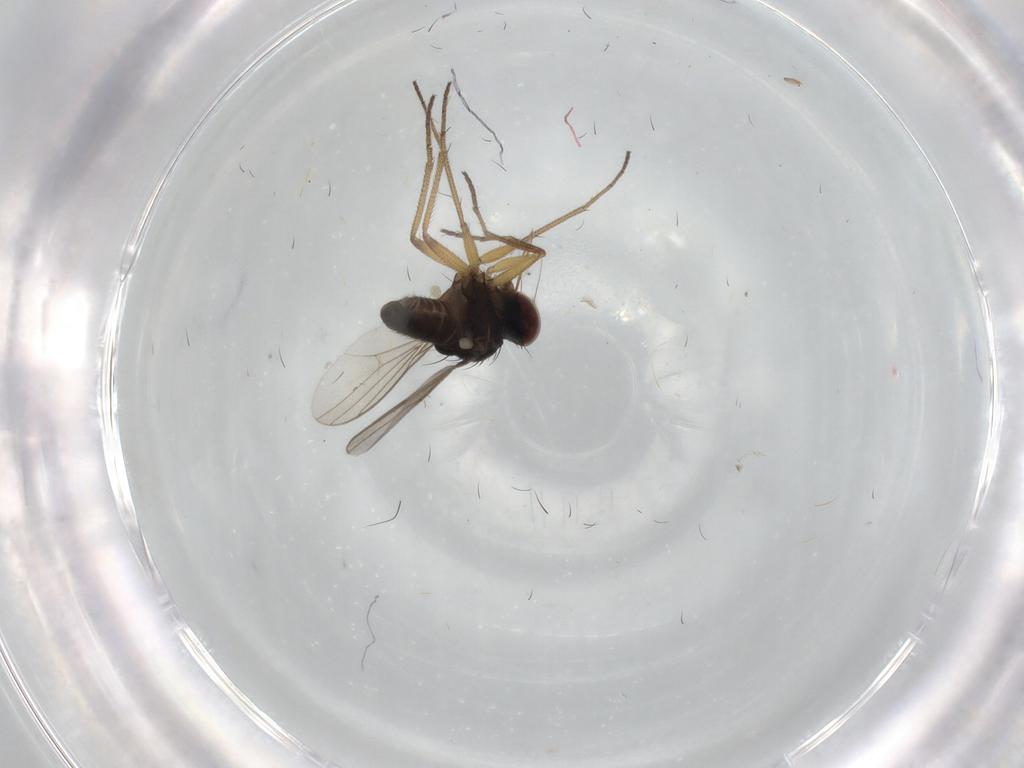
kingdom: Animalia
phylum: Arthropoda
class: Insecta
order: Diptera
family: Dolichopodidae
